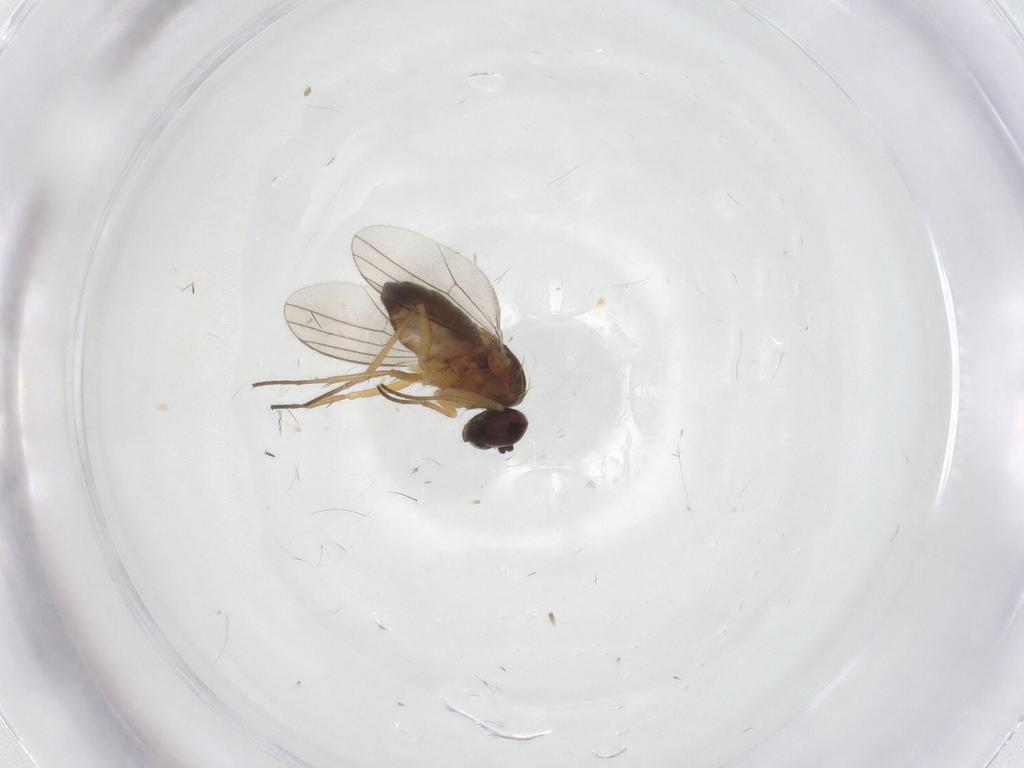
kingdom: Animalia
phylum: Arthropoda
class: Insecta
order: Diptera
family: Dolichopodidae
